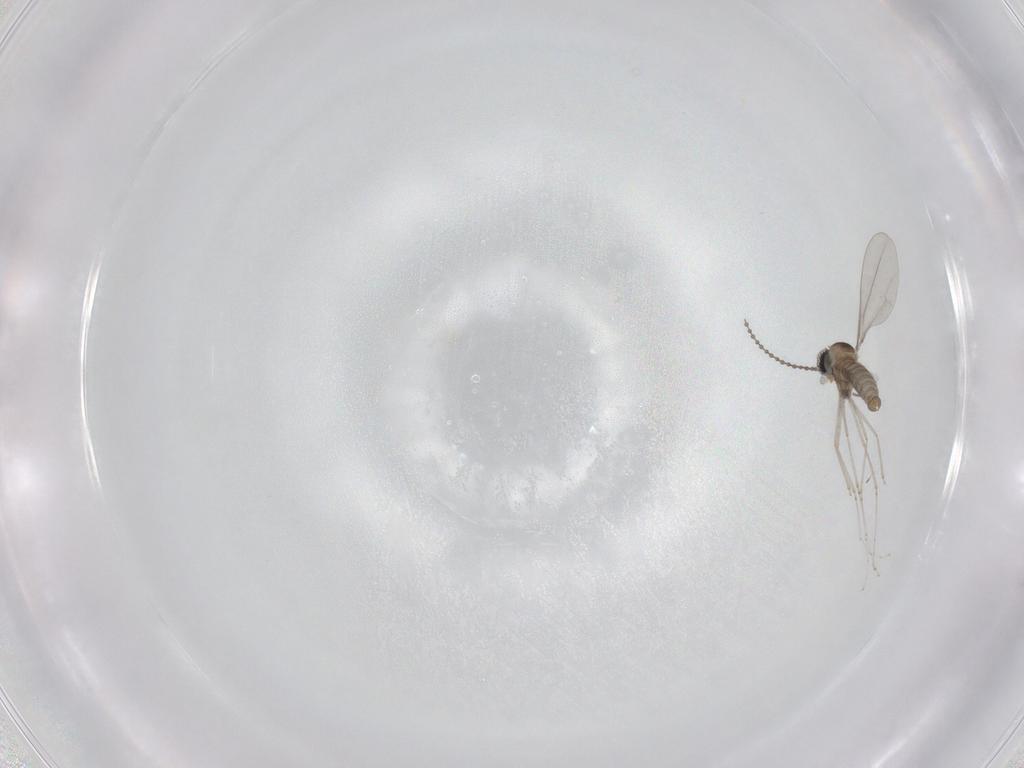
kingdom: Animalia
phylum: Arthropoda
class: Insecta
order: Diptera
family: Cecidomyiidae
